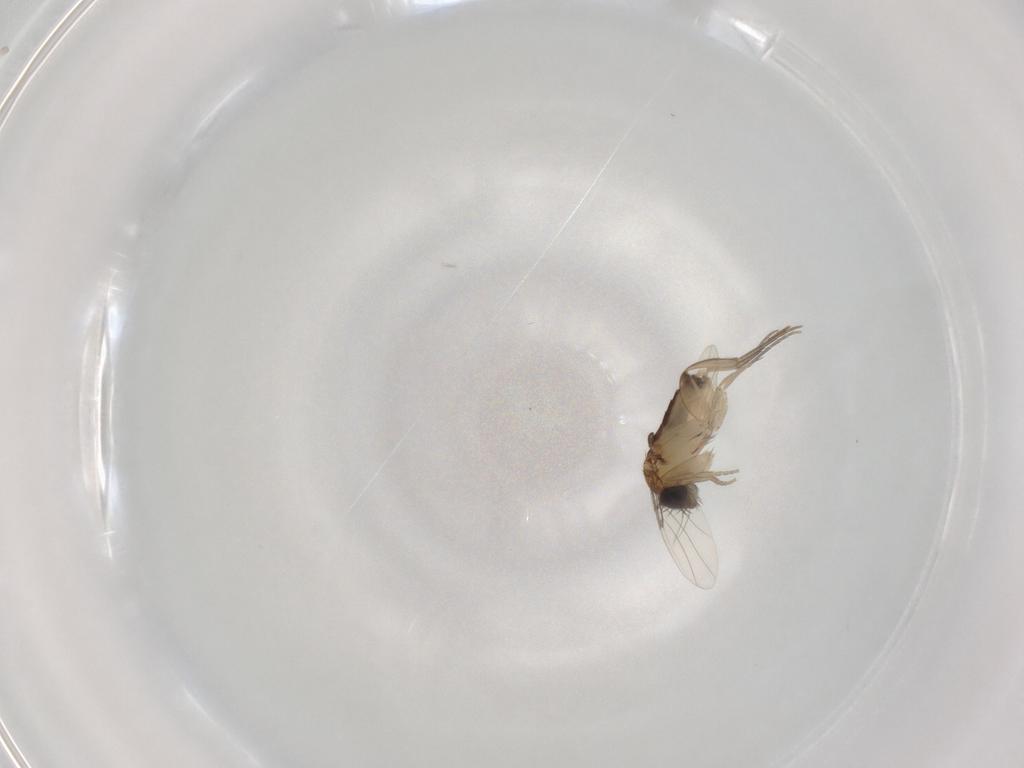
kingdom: Animalia
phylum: Arthropoda
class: Insecta
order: Diptera
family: Phoridae
